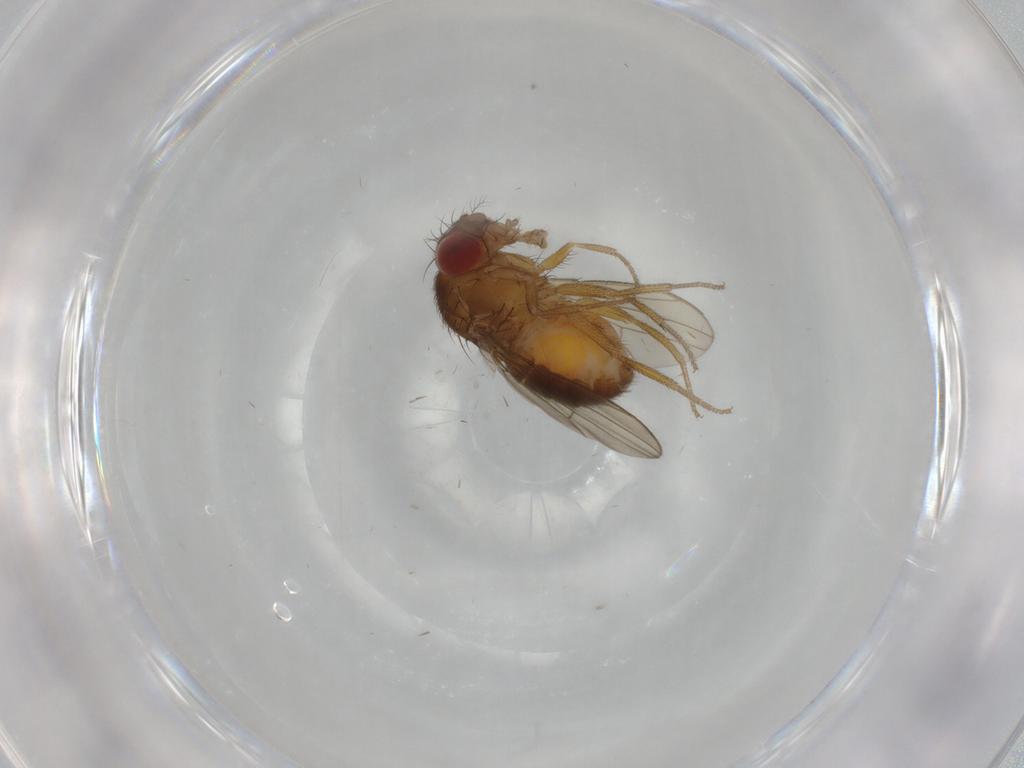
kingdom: Animalia
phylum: Arthropoda
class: Insecta
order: Diptera
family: Drosophilidae
